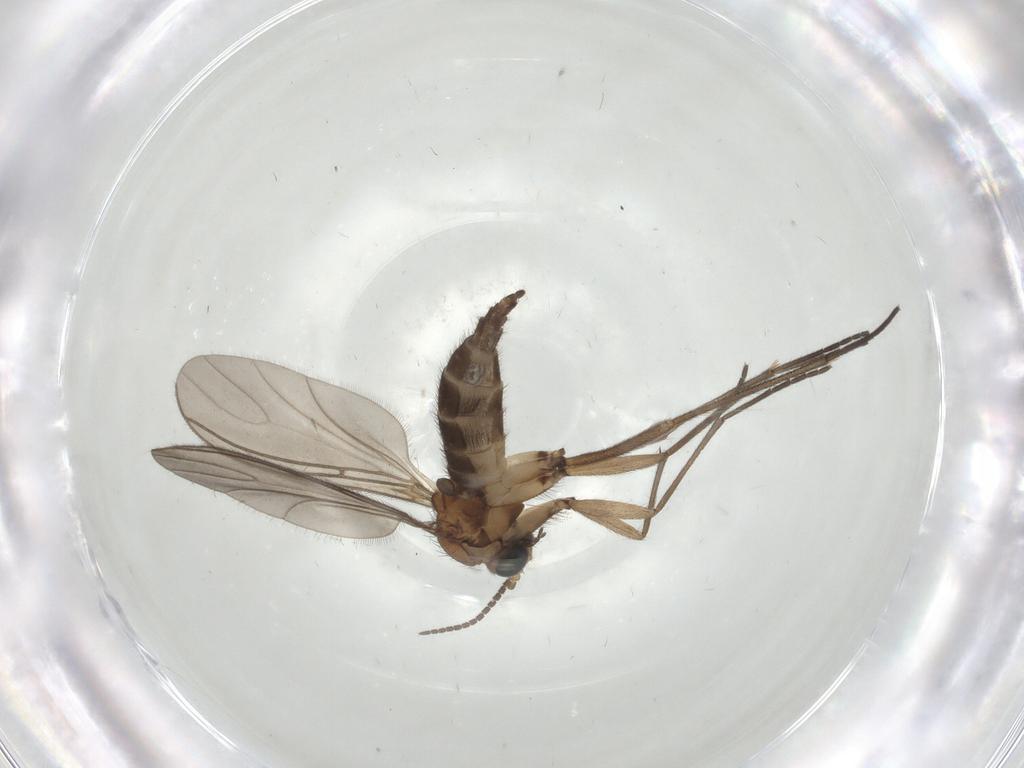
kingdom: Animalia
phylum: Arthropoda
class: Insecta
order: Diptera
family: Sciaridae
